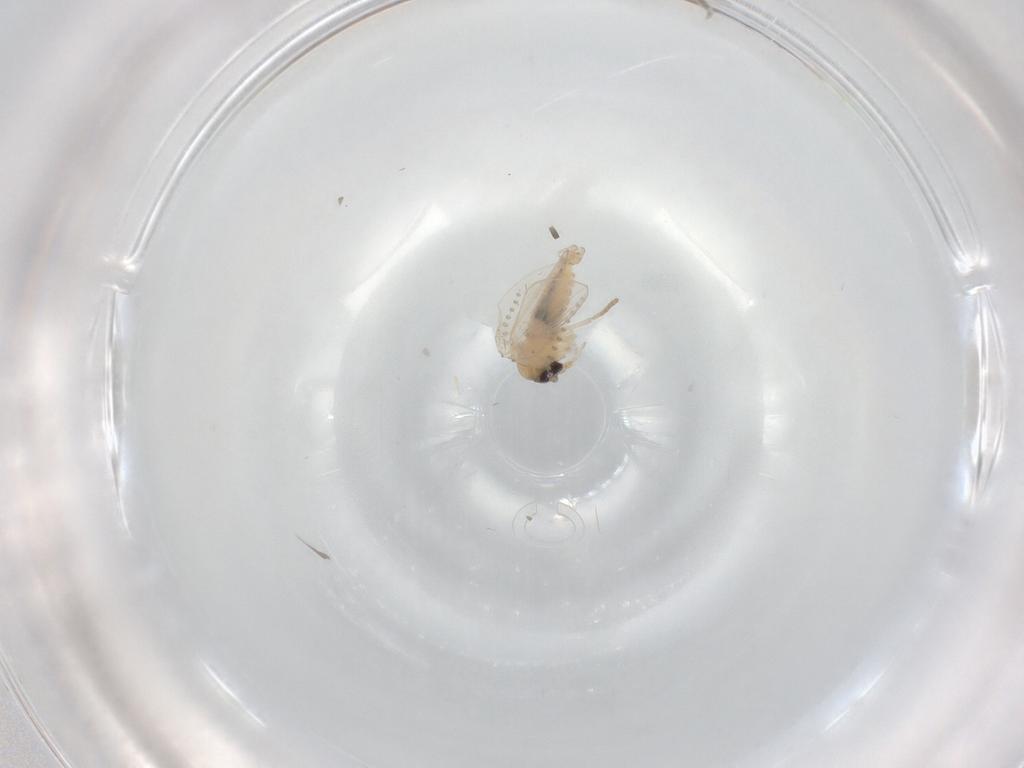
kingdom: Animalia
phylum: Arthropoda
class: Insecta
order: Diptera
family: Psychodidae
